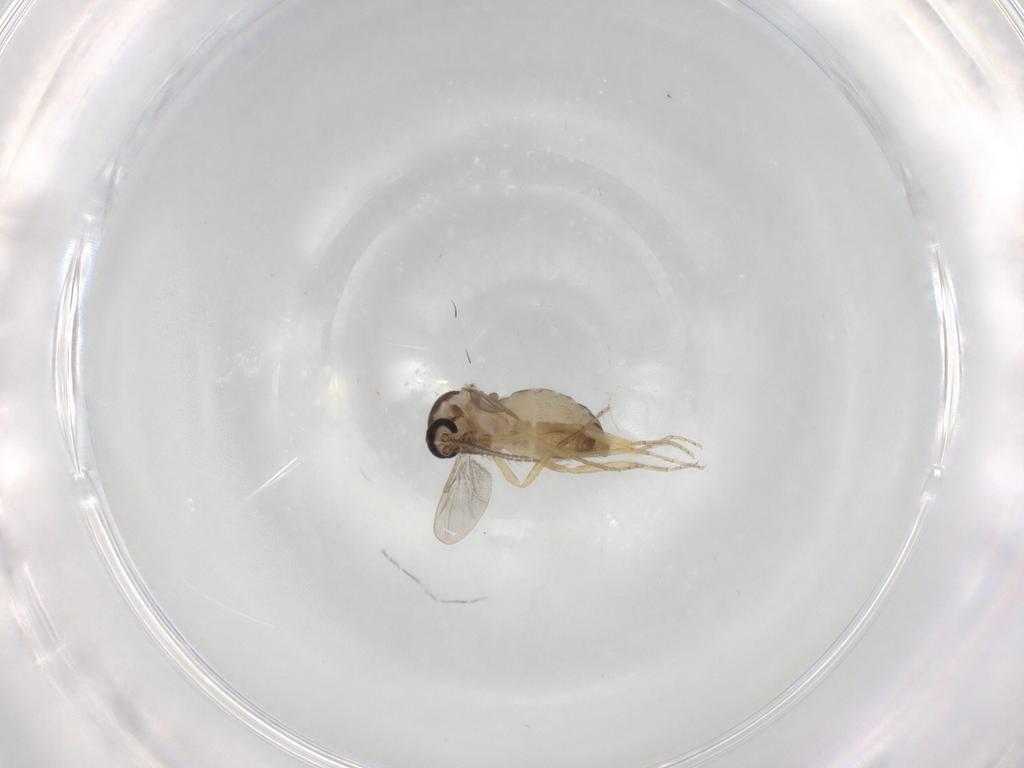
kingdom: Animalia
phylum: Arthropoda
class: Insecta
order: Diptera
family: Ceratopogonidae
